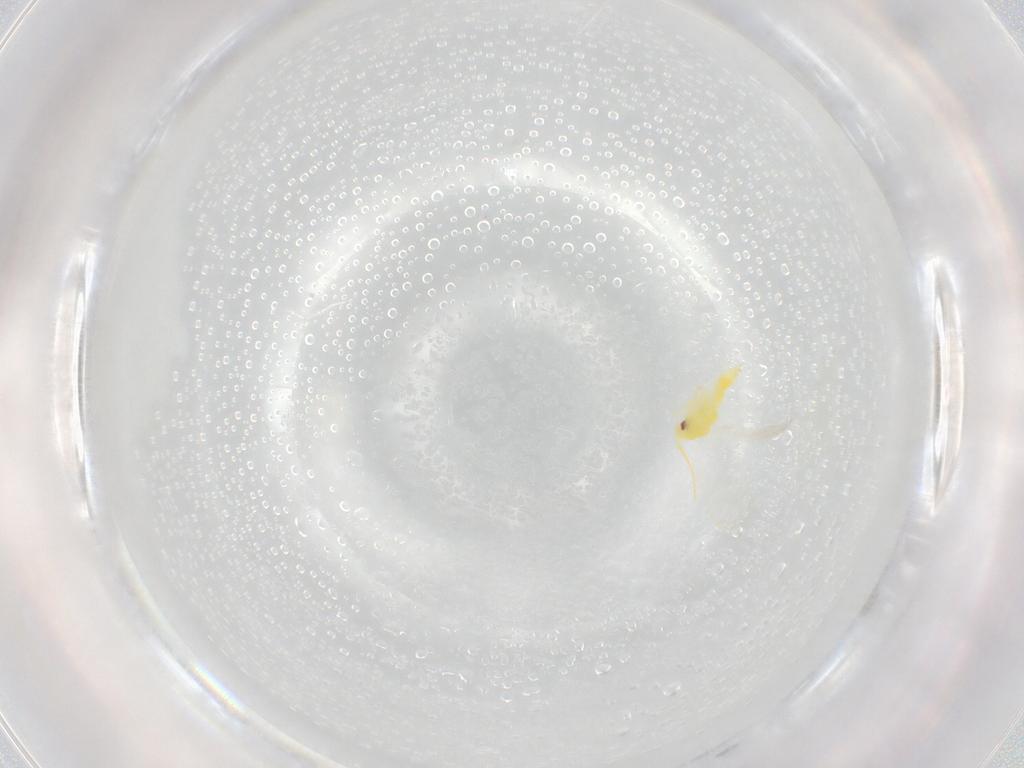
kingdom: Animalia
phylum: Arthropoda
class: Insecta
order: Hemiptera
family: Aleyrodidae
